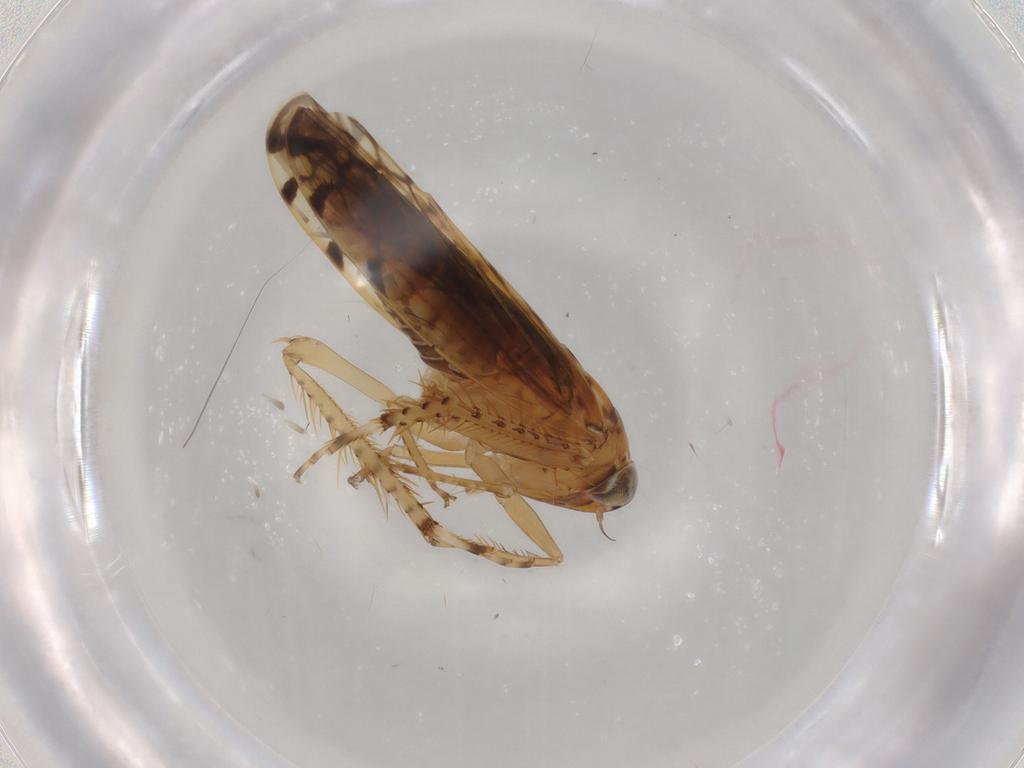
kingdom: Animalia
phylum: Arthropoda
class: Insecta
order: Hemiptera
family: Cicadellidae
